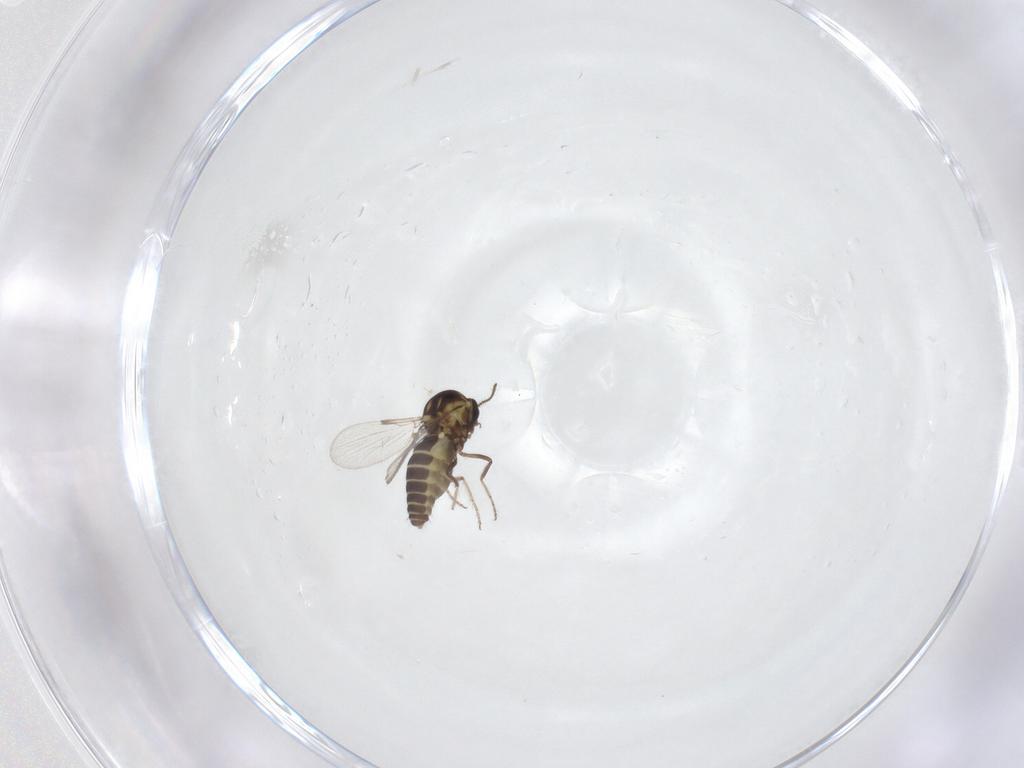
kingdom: Animalia
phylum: Arthropoda
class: Insecta
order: Diptera
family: Ceratopogonidae
